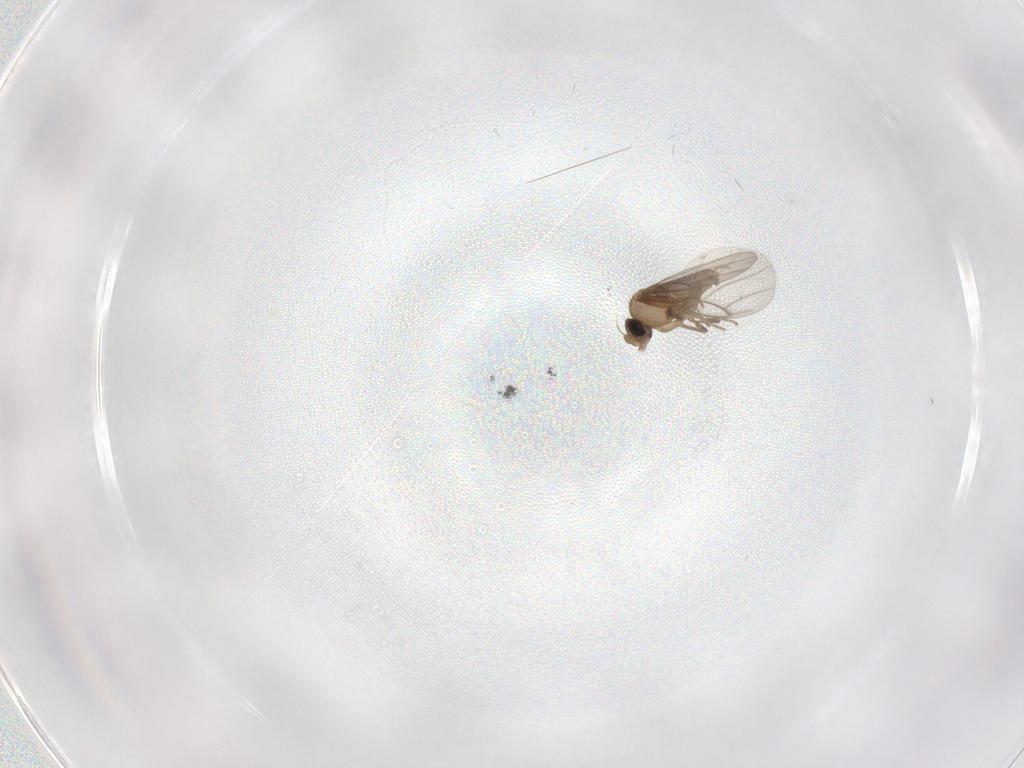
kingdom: Animalia
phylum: Arthropoda
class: Insecta
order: Diptera
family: Cecidomyiidae
